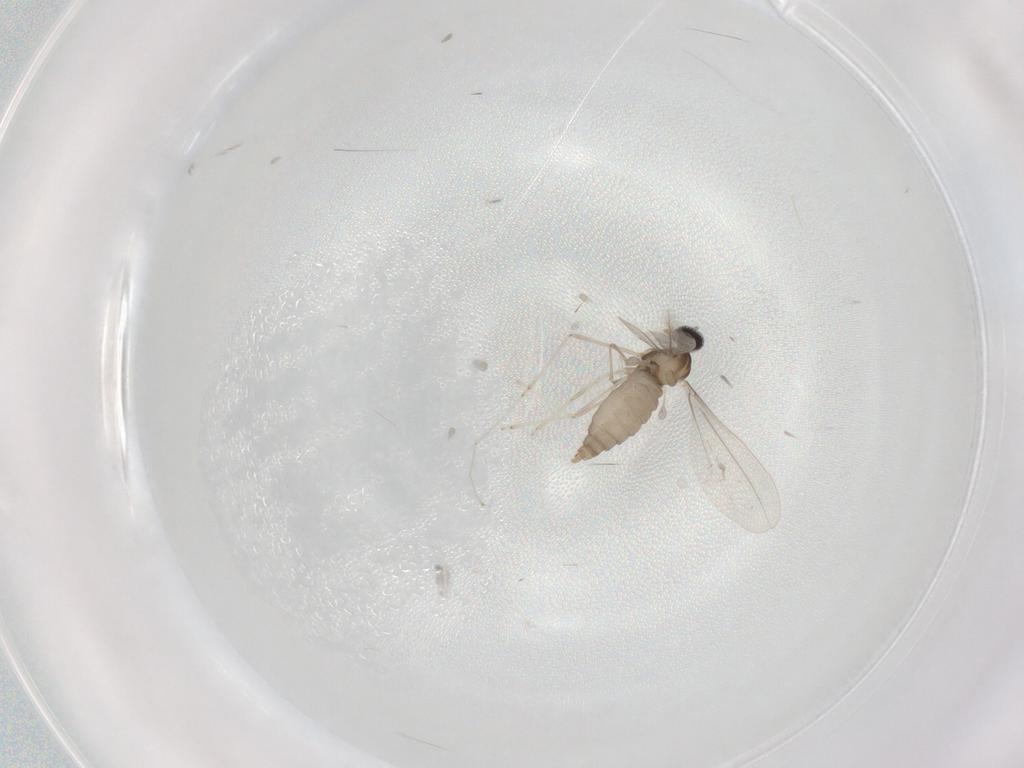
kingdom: Animalia
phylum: Arthropoda
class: Insecta
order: Diptera
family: Cecidomyiidae
